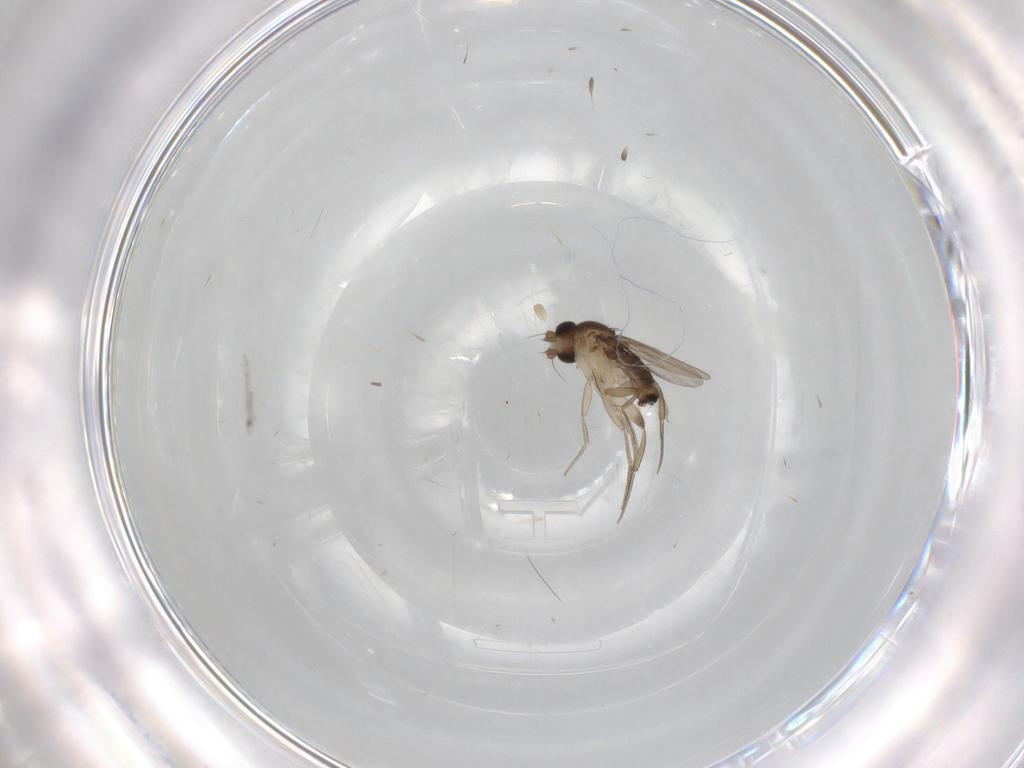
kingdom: Animalia
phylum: Arthropoda
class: Insecta
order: Diptera
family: Phoridae
